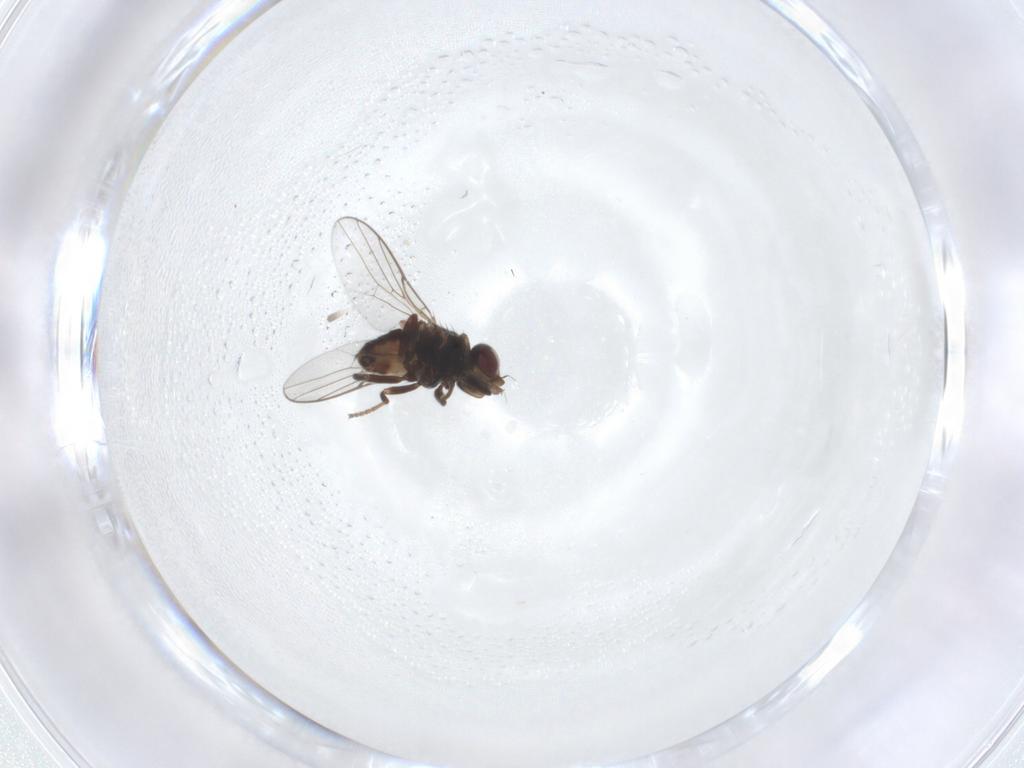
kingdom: Animalia
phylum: Arthropoda
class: Insecta
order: Diptera
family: Chloropidae
